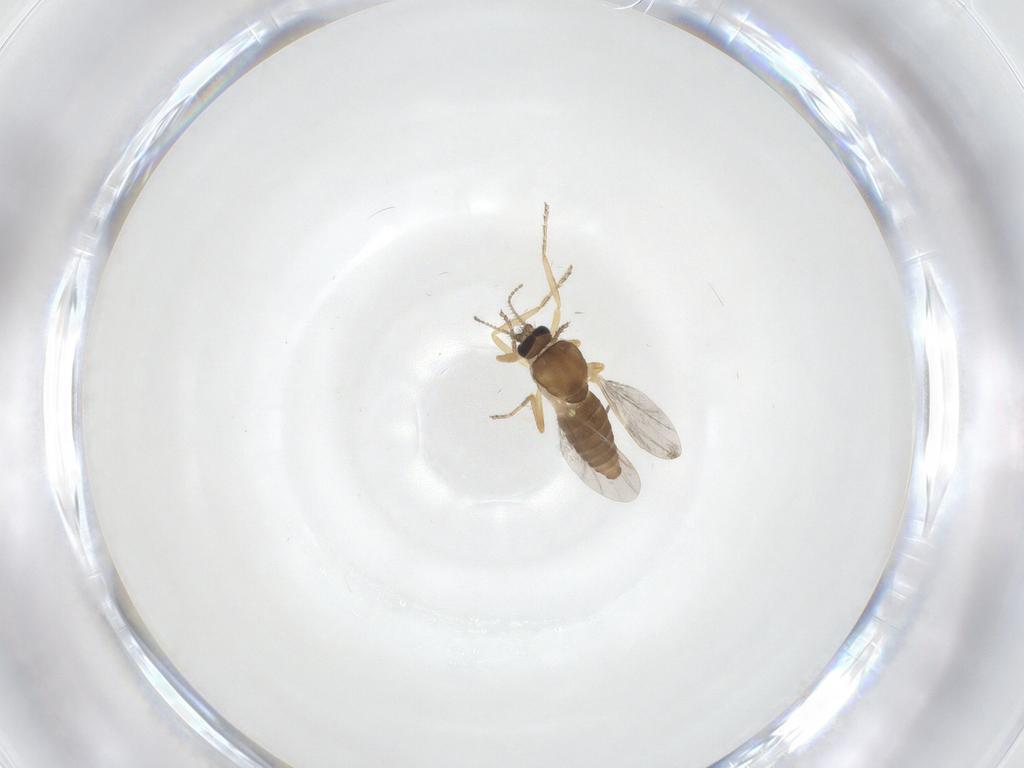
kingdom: Animalia
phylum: Arthropoda
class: Insecta
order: Diptera
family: Ceratopogonidae
